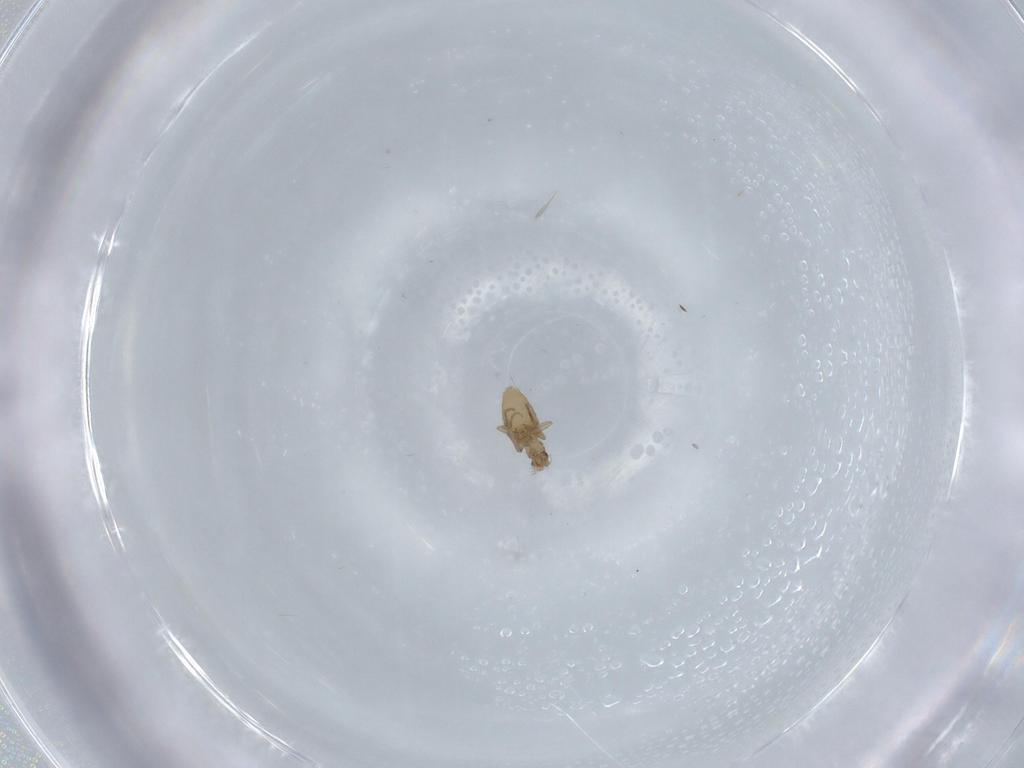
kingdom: Animalia
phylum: Arthropoda
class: Insecta
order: Diptera
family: Phoridae
